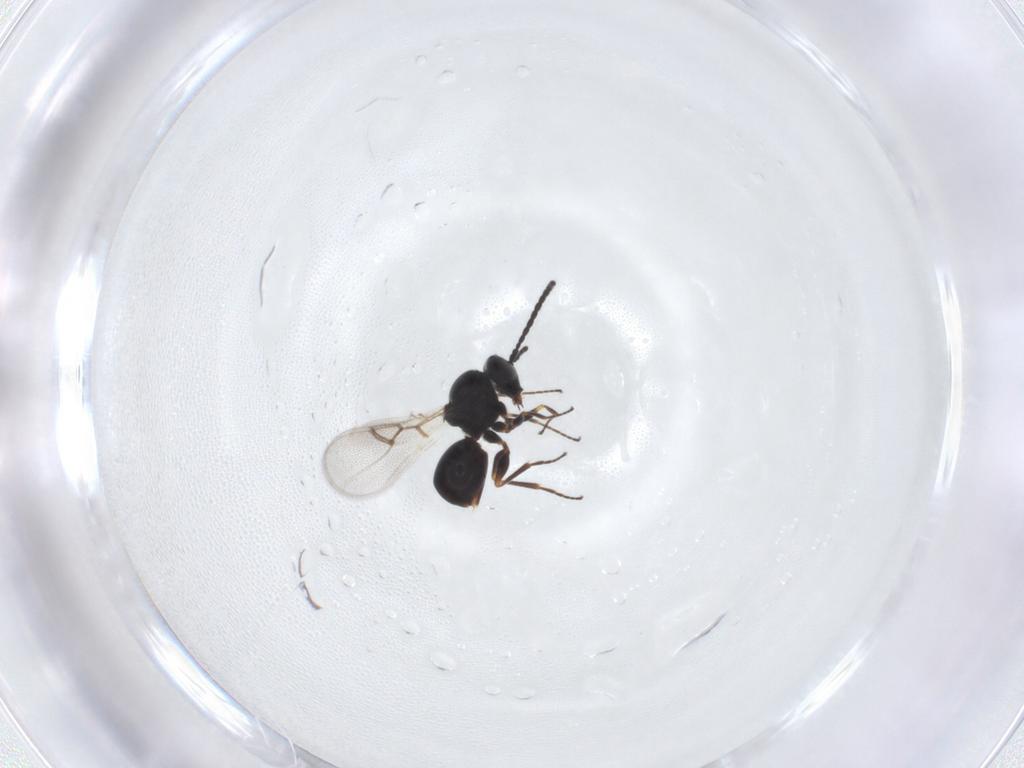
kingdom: Animalia
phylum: Arthropoda
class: Insecta
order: Hymenoptera
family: Figitidae
